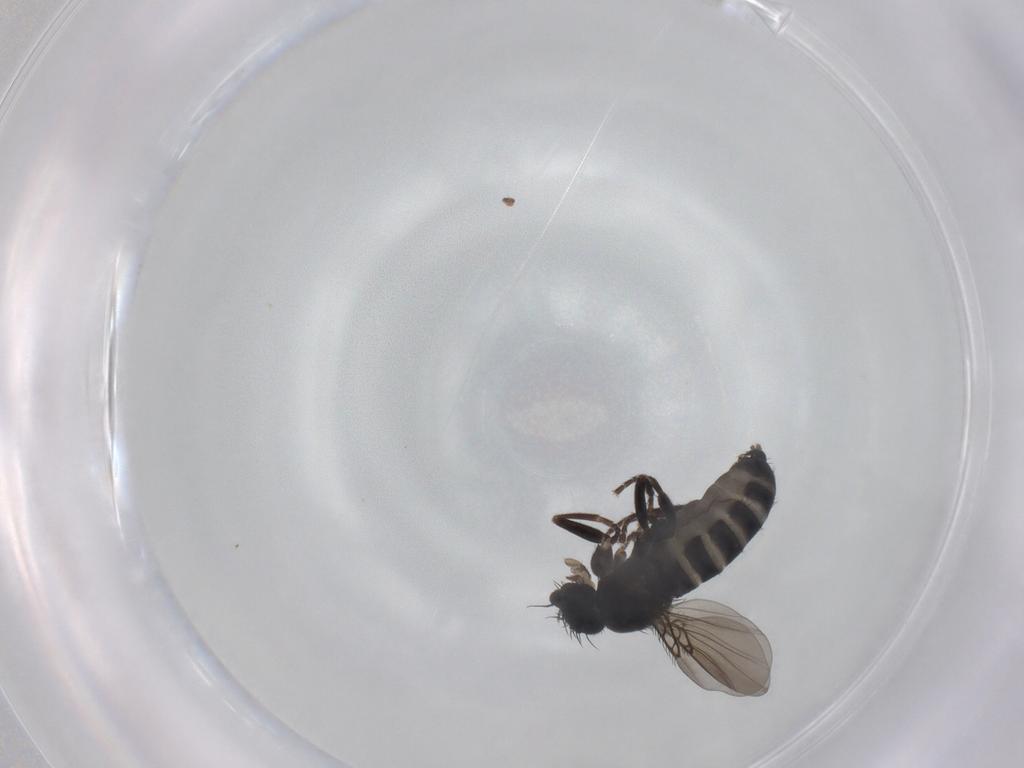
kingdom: Animalia
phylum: Arthropoda
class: Insecta
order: Diptera
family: Phoridae
